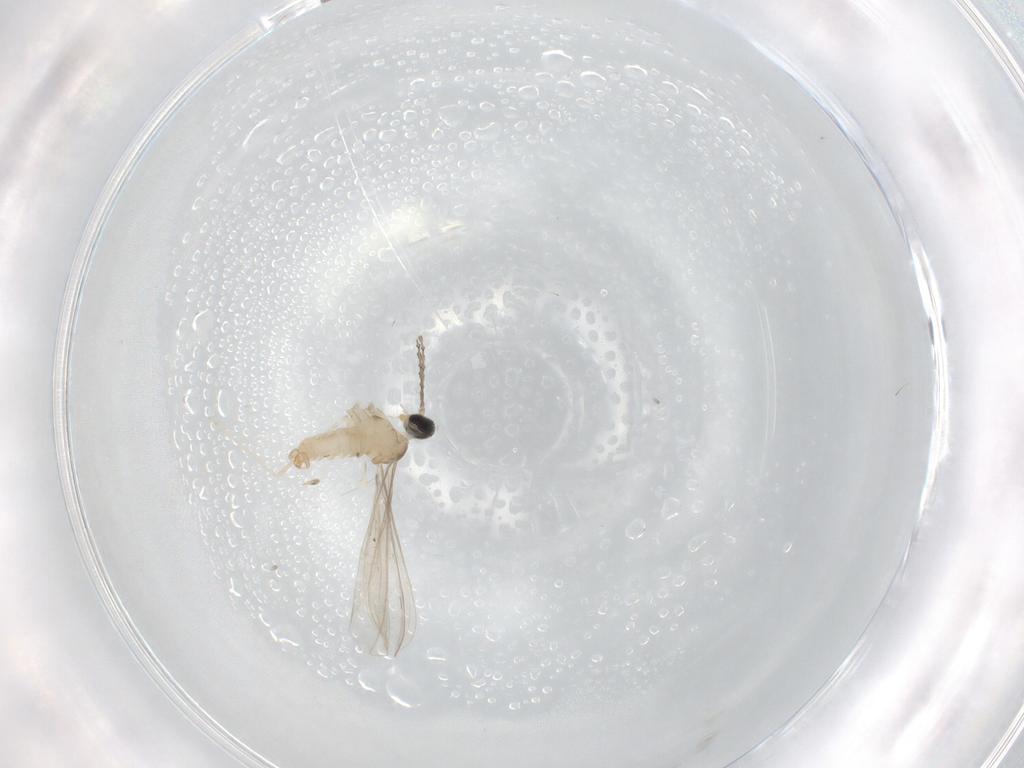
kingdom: Animalia
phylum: Arthropoda
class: Insecta
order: Diptera
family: Cecidomyiidae
